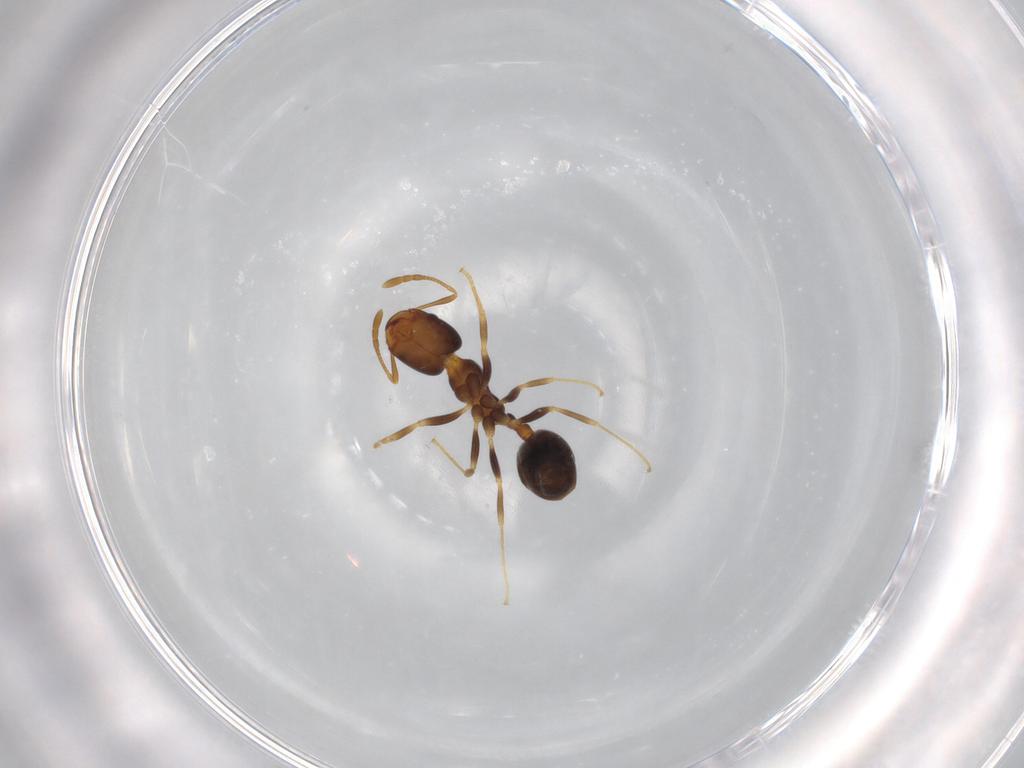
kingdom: Animalia
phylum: Arthropoda
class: Insecta
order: Hymenoptera
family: Formicidae
